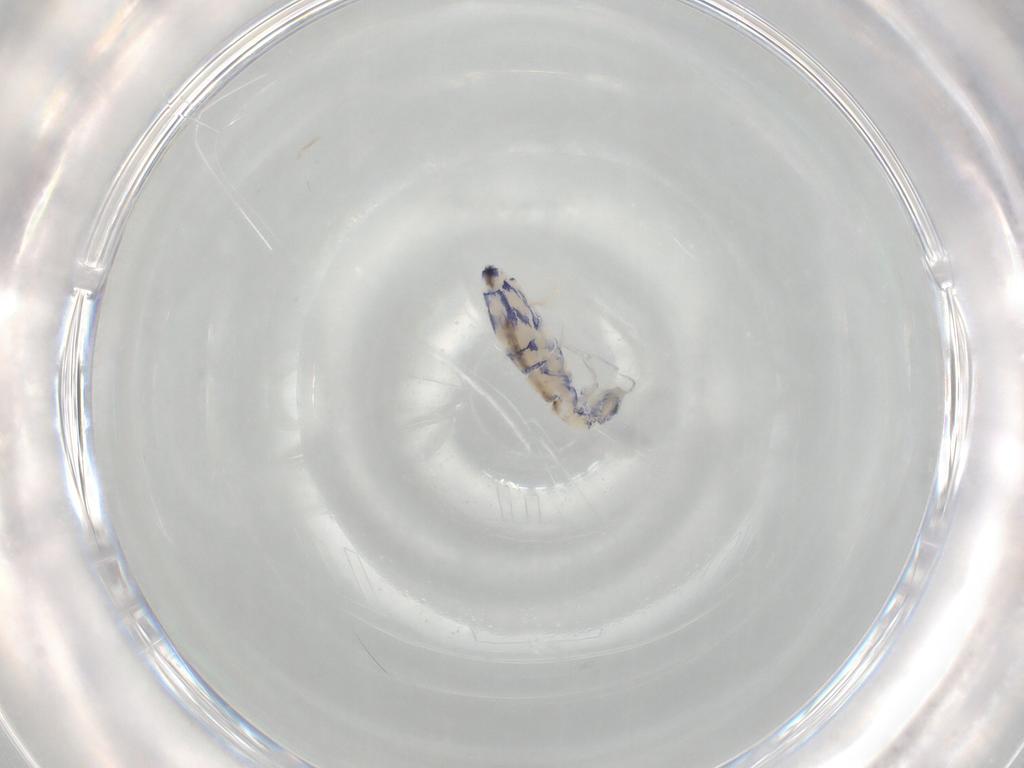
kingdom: Animalia
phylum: Arthropoda
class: Collembola
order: Entomobryomorpha
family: Entomobryidae
